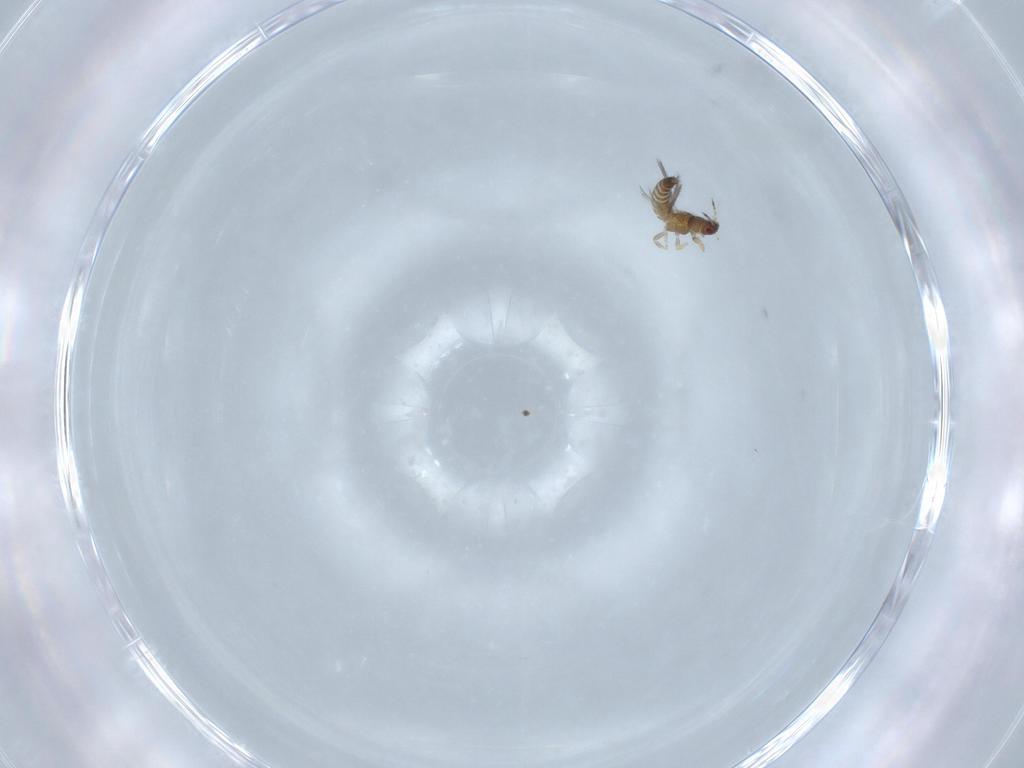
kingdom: Animalia
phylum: Arthropoda
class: Insecta
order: Thysanoptera
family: Thripidae
